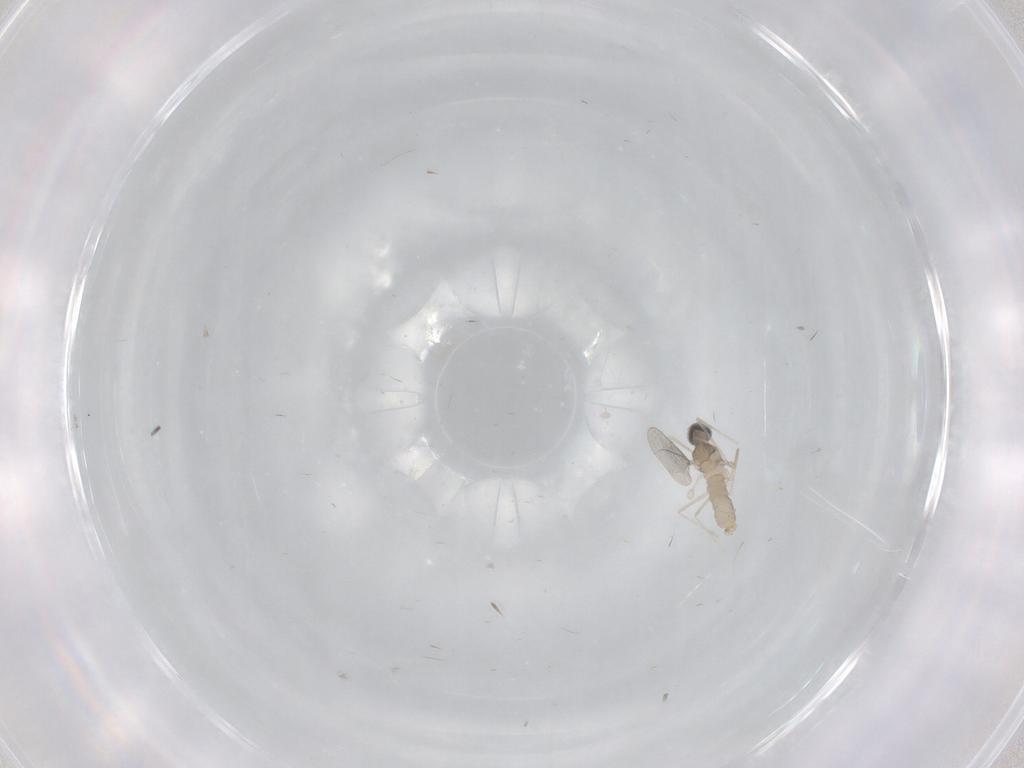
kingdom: Animalia
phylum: Arthropoda
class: Insecta
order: Diptera
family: Cecidomyiidae
